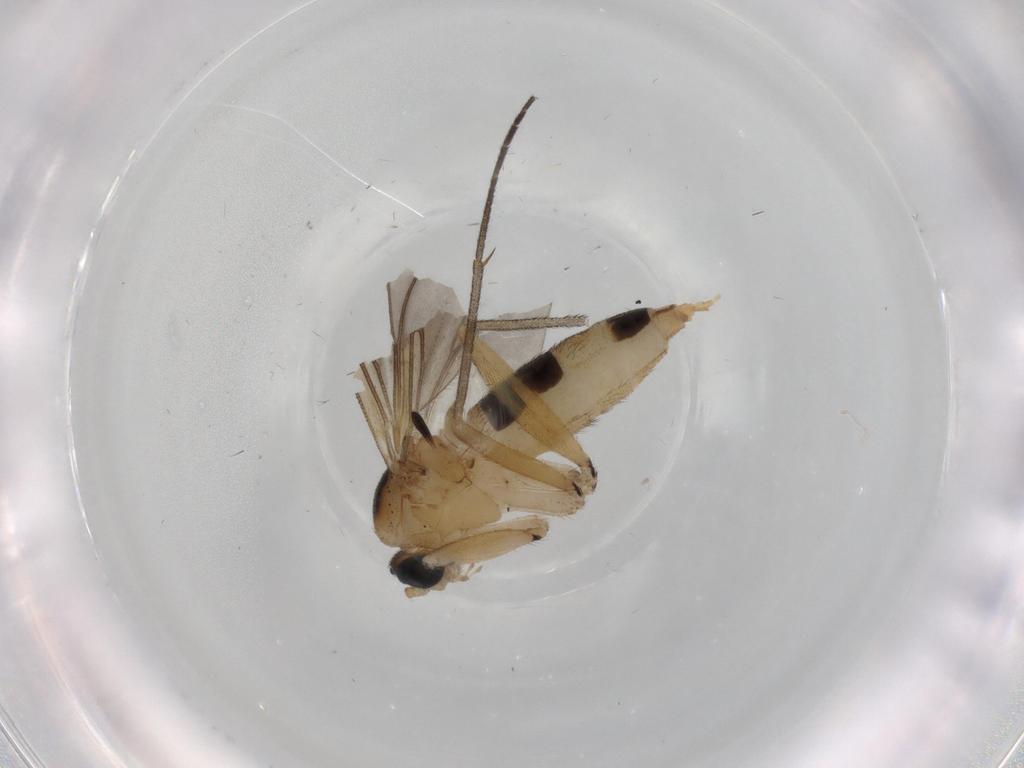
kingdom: Animalia
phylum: Arthropoda
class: Insecta
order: Diptera
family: Sciaridae
